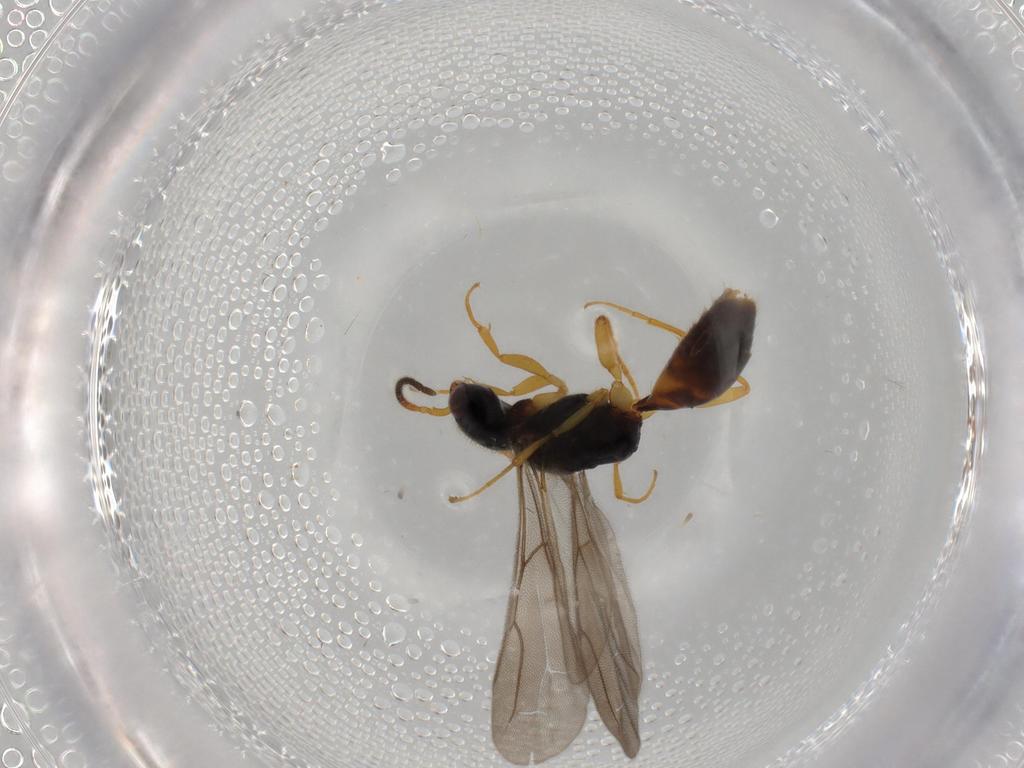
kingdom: Animalia
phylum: Arthropoda
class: Insecta
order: Hymenoptera
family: Bethylidae
